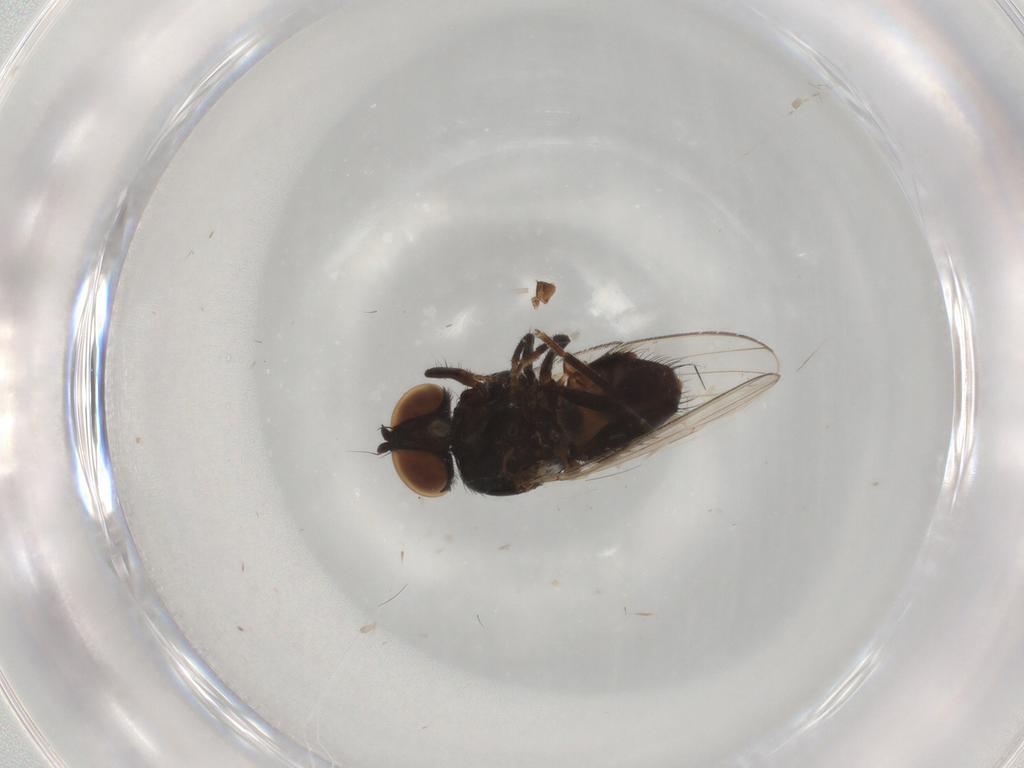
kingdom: Animalia
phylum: Arthropoda
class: Insecta
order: Diptera
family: Milichiidae
